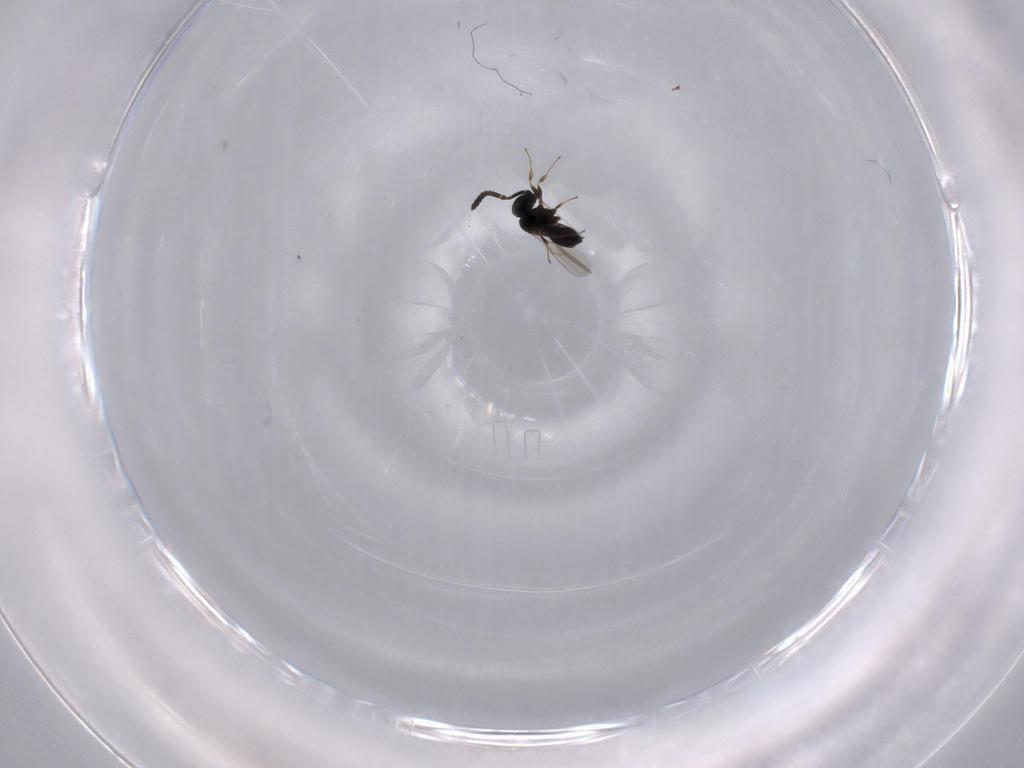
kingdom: Animalia
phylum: Arthropoda
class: Insecta
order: Hymenoptera
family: Scelionidae
